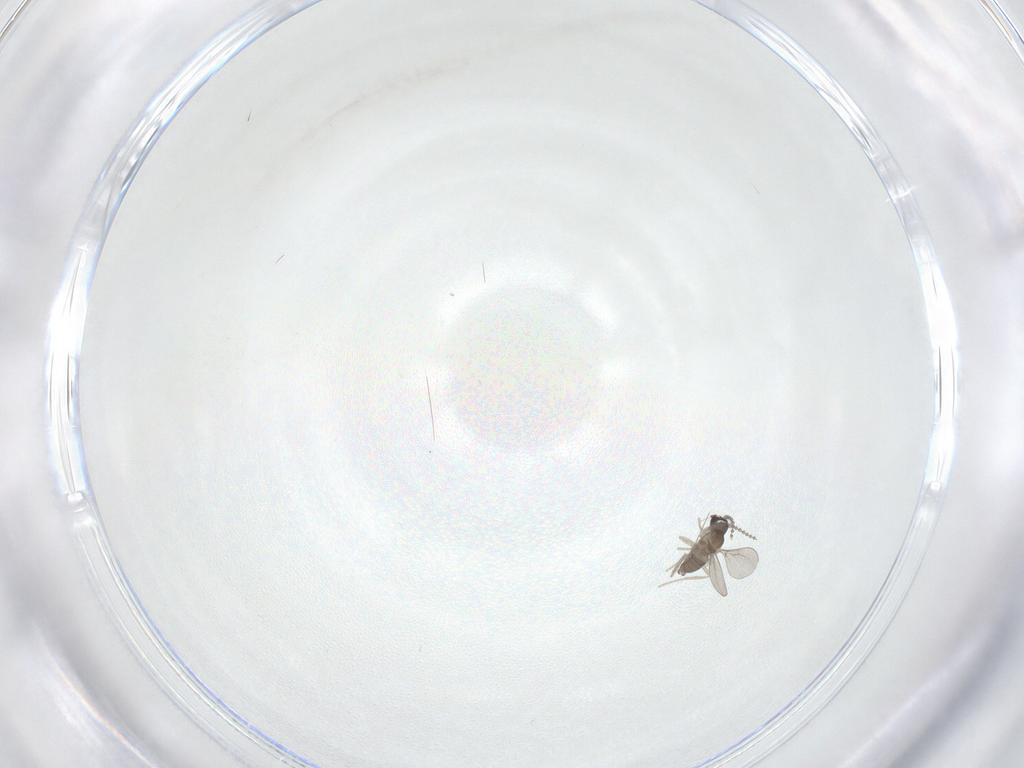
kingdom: Animalia
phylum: Arthropoda
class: Insecta
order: Diptera
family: Cecidomyiidae
